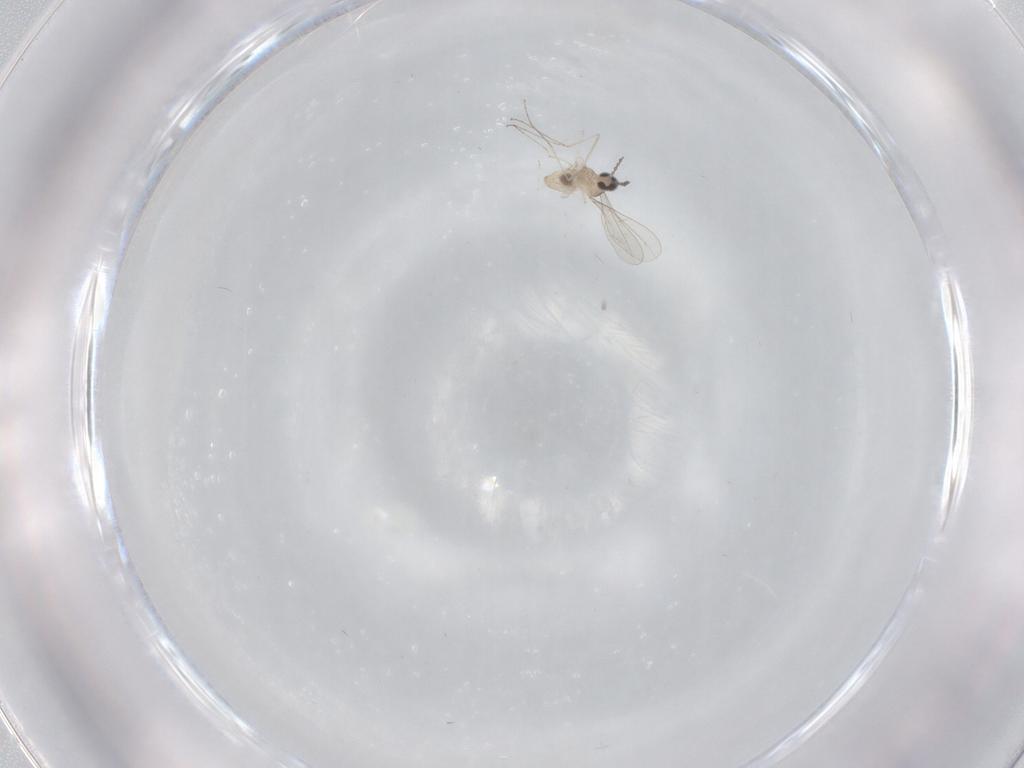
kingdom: Animalia
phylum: Arthropoda
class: Insecta
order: Diptera
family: Cecidomyiidae
